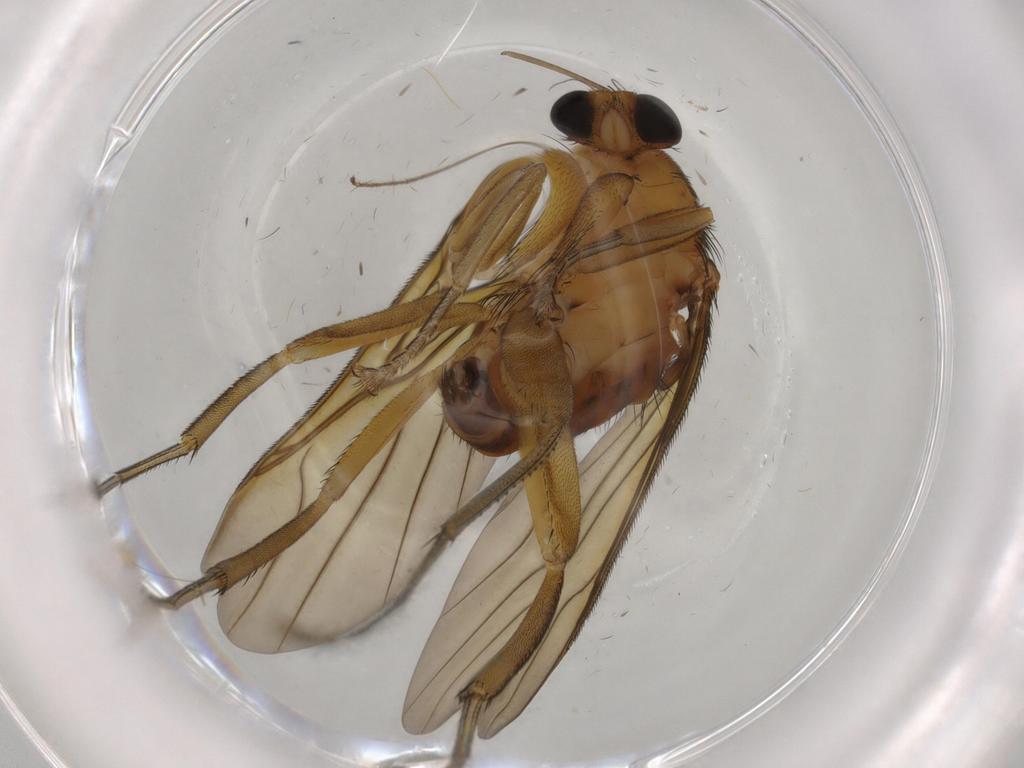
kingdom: Animalia
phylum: Arthropoda
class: Insecta
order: Diptera
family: Phoridae
